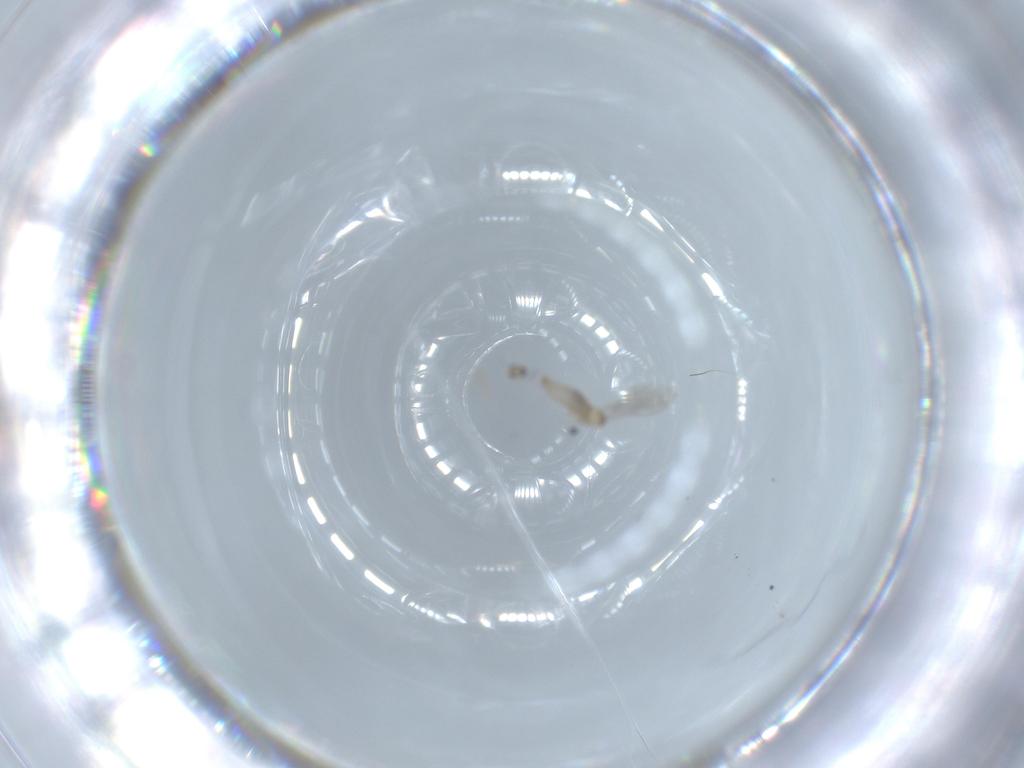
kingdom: Animalia
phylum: Arthropoda
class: Insecta
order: Diptera
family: Cecidomyiidae
